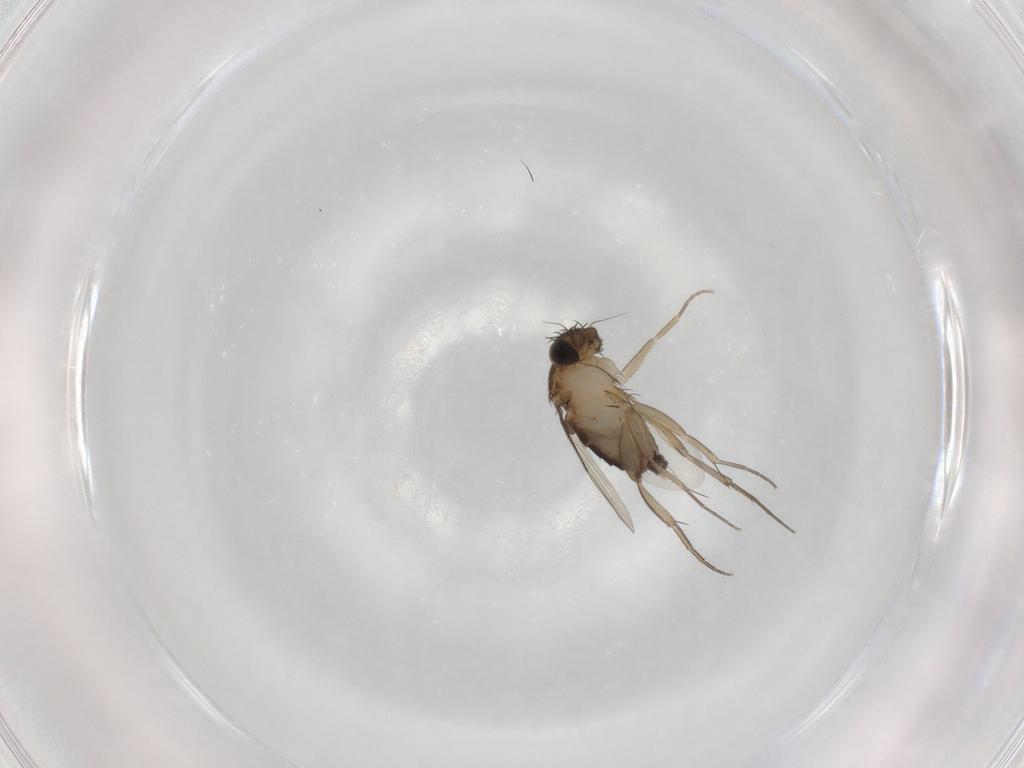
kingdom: Animalia
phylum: Arthropoda
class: Insecta
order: Diptera
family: Phoridae
